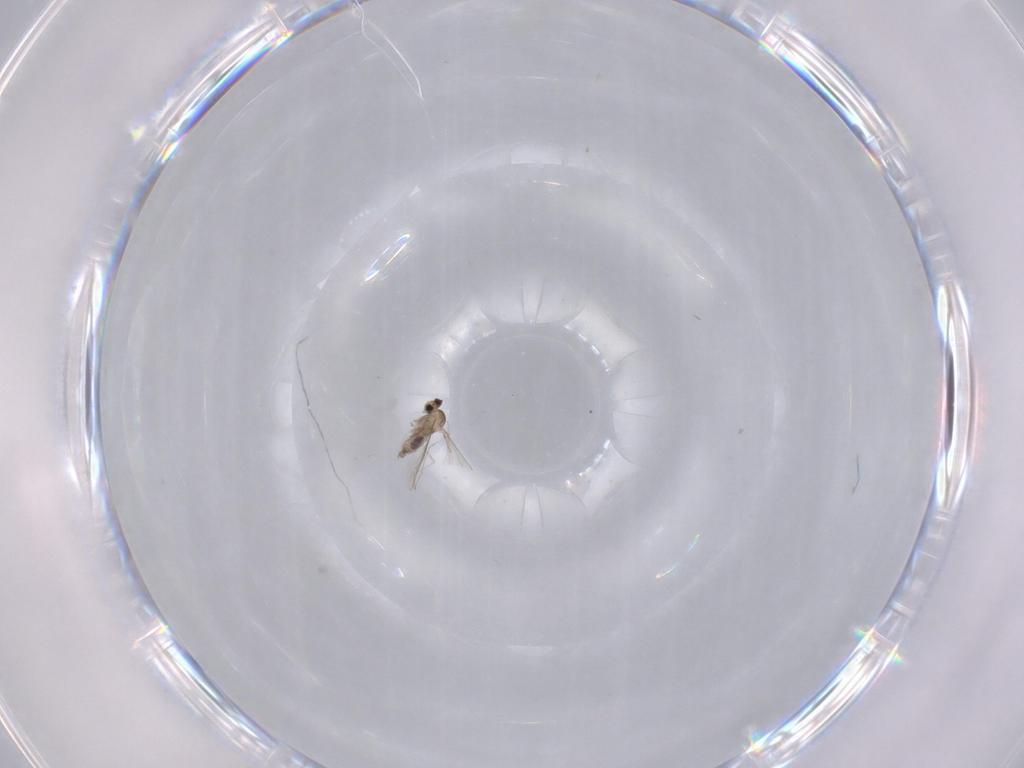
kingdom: Animalia
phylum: Arthropoda
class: Insecta
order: Diptera
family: Cecidomyiidae
